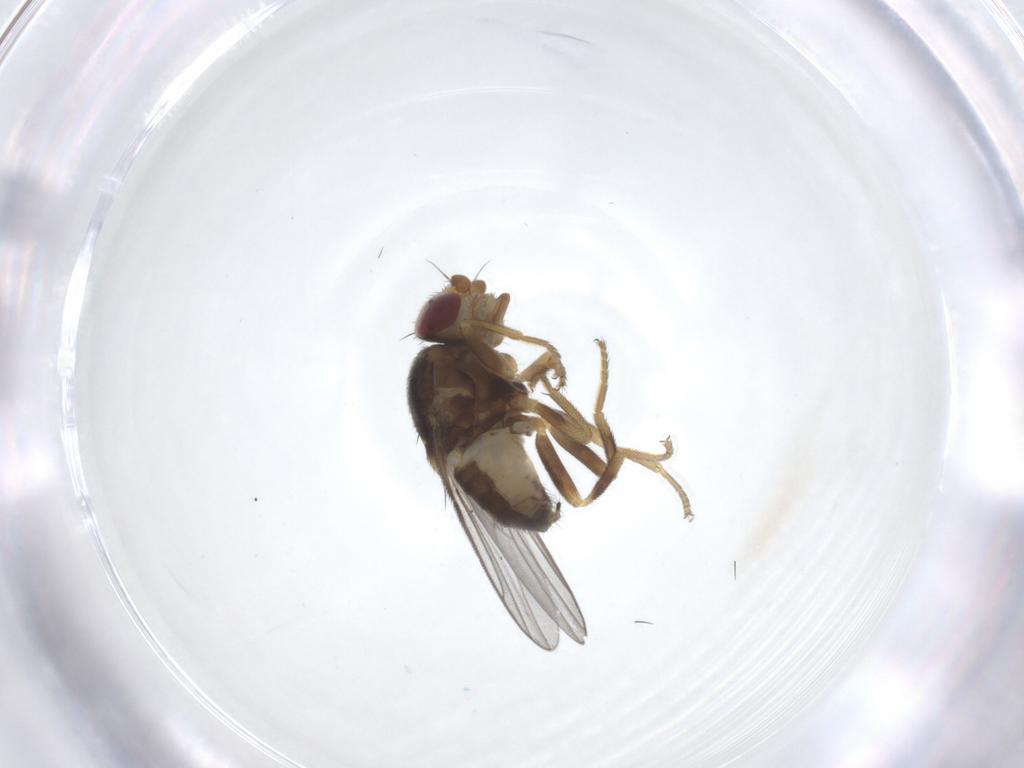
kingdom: Animalia
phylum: Arthropoda
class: Insecta
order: Diptera
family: Chloropidae
